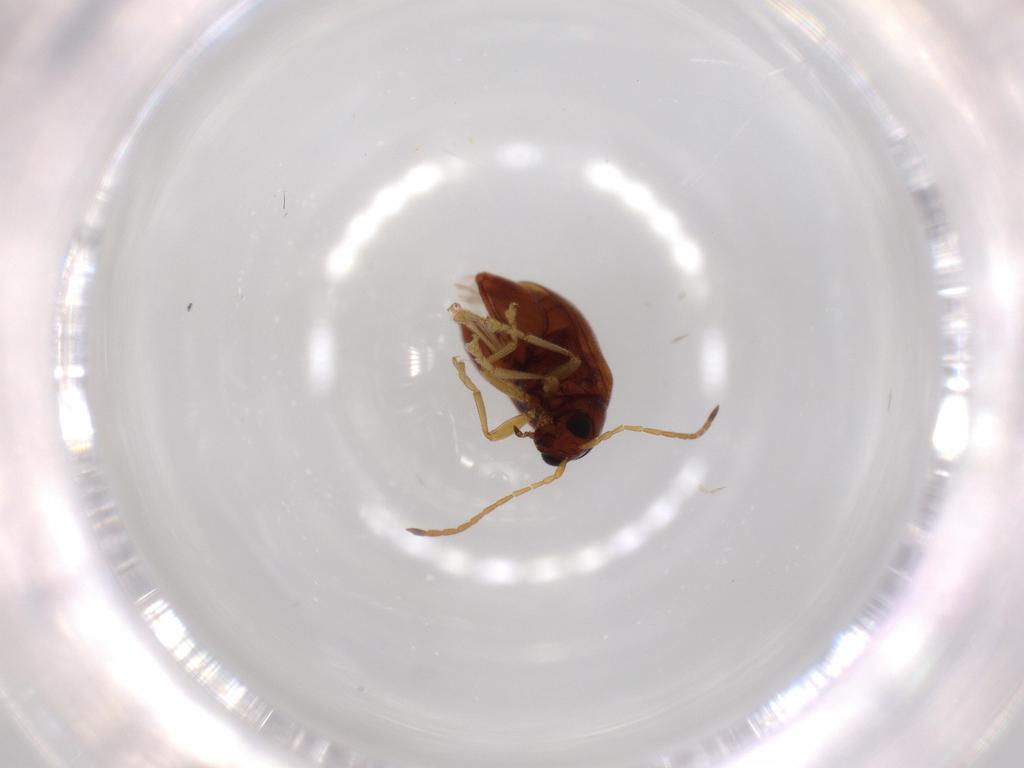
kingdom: Animalia
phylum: Arthropoda
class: Insecta
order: Coleoptera
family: Chrysomelidae
